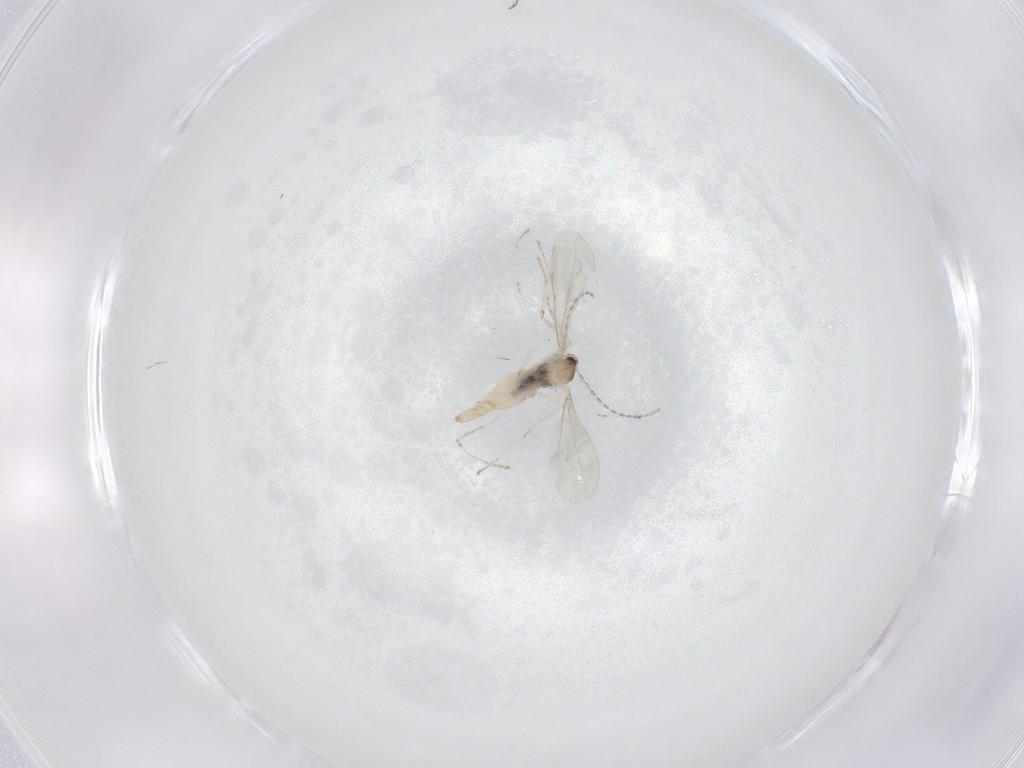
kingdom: Animalia
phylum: Arthropoda
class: Insecta
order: Diptera
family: Cecidomyiidae
